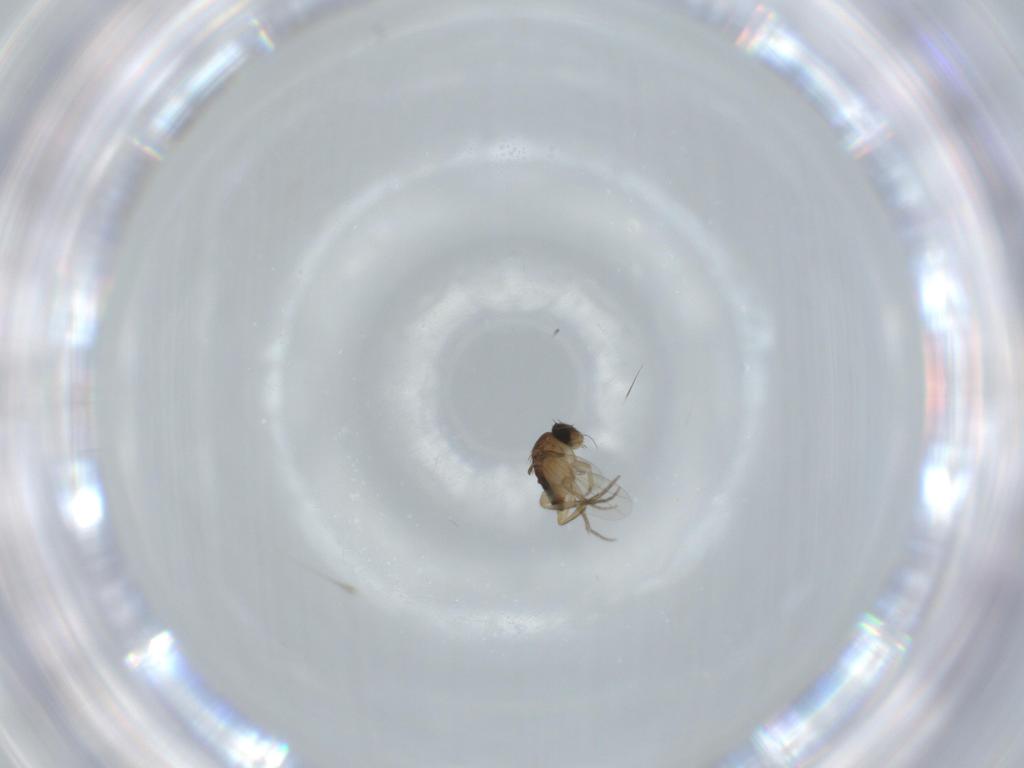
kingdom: Animalia
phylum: Arthropoda
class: Insecta
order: Diptera
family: Phoridae
